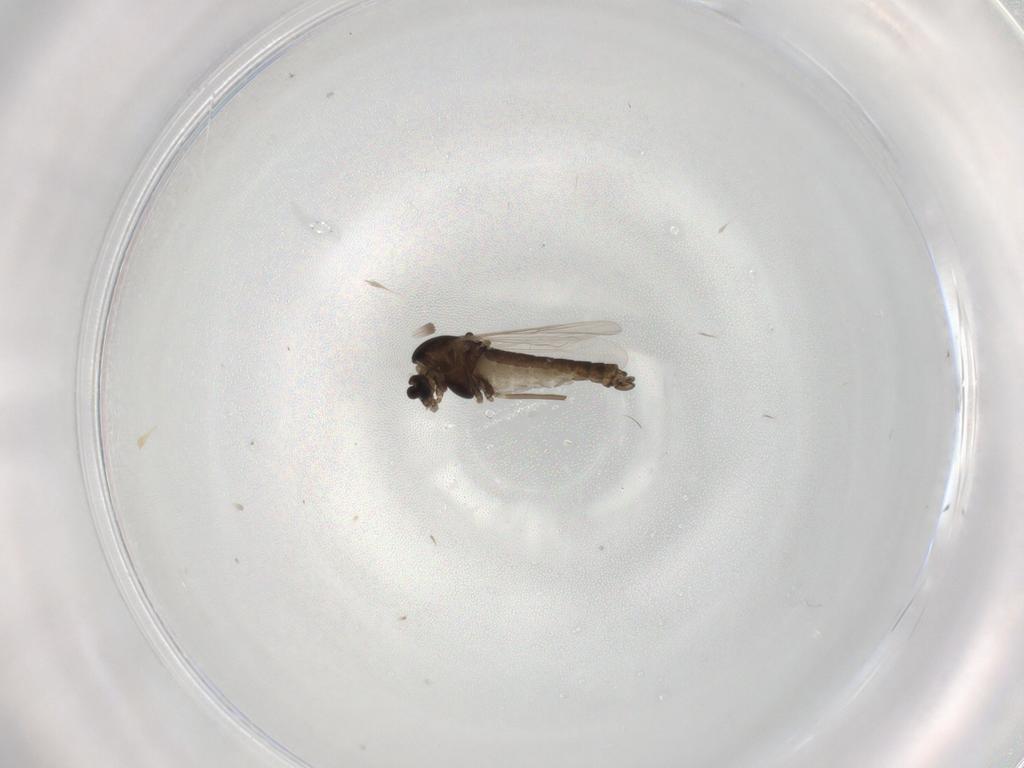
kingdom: Animalia
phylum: Arthropoda
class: Insecta
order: Diptera
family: Chironomidae
